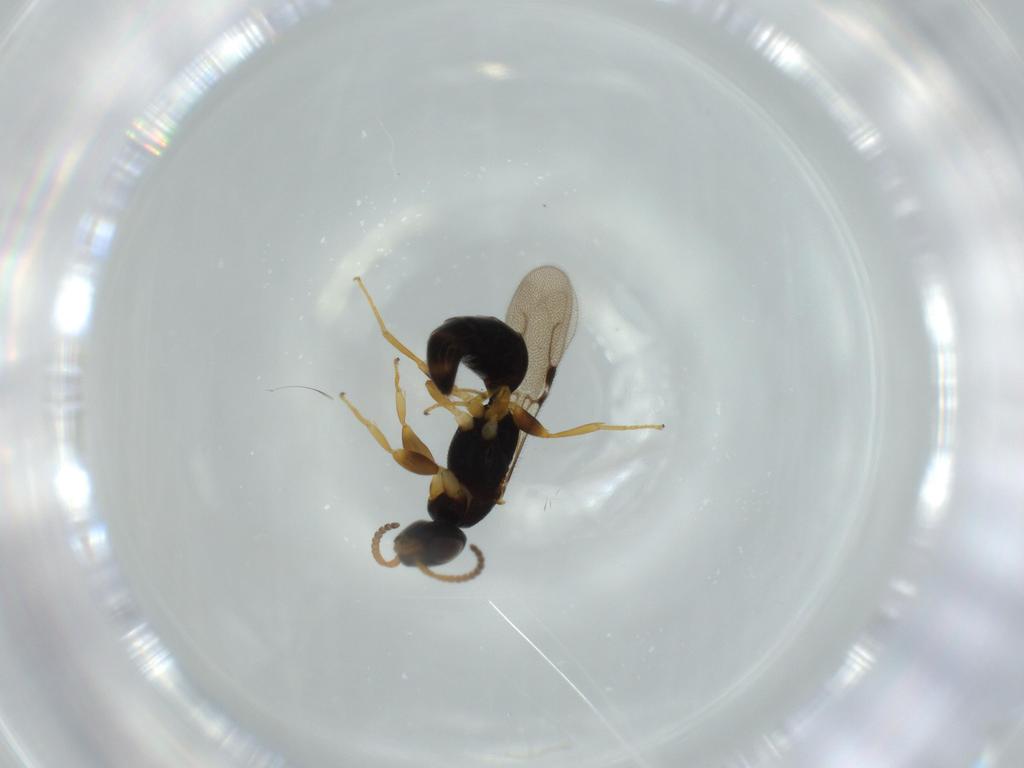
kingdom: Animalia
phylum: Arthropoda
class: Insecta
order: Hymenoptera
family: Bethylidae
